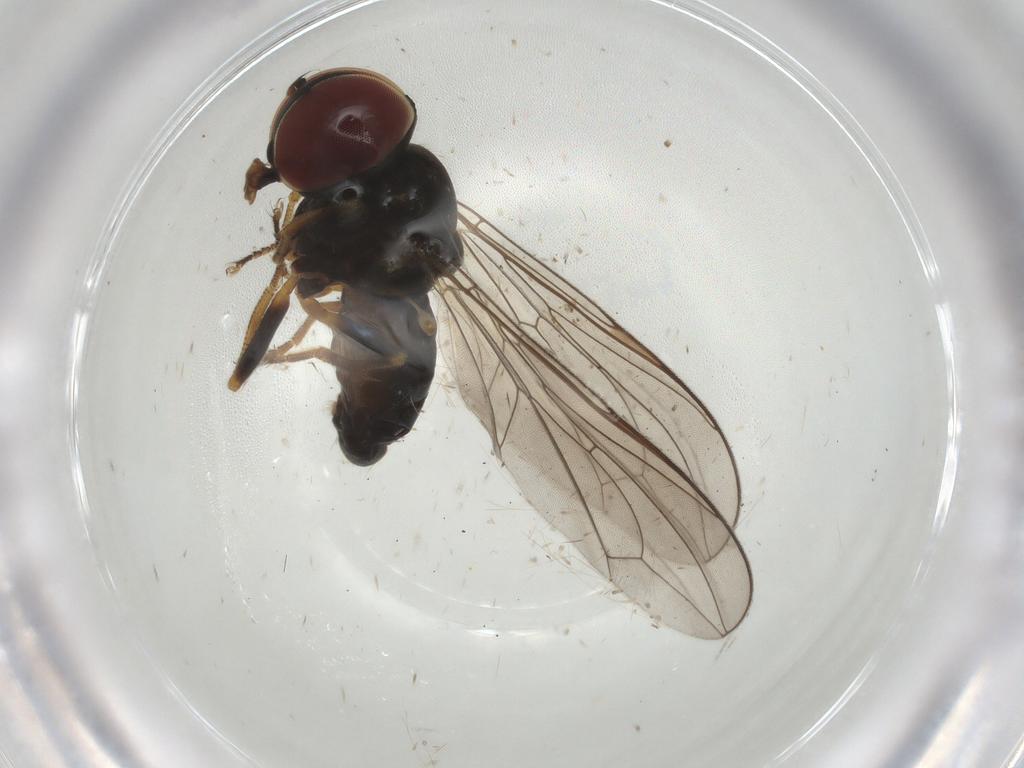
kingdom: Animalia
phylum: Arthropoda
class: Insecta
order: Diptera
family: Pipunculidae
